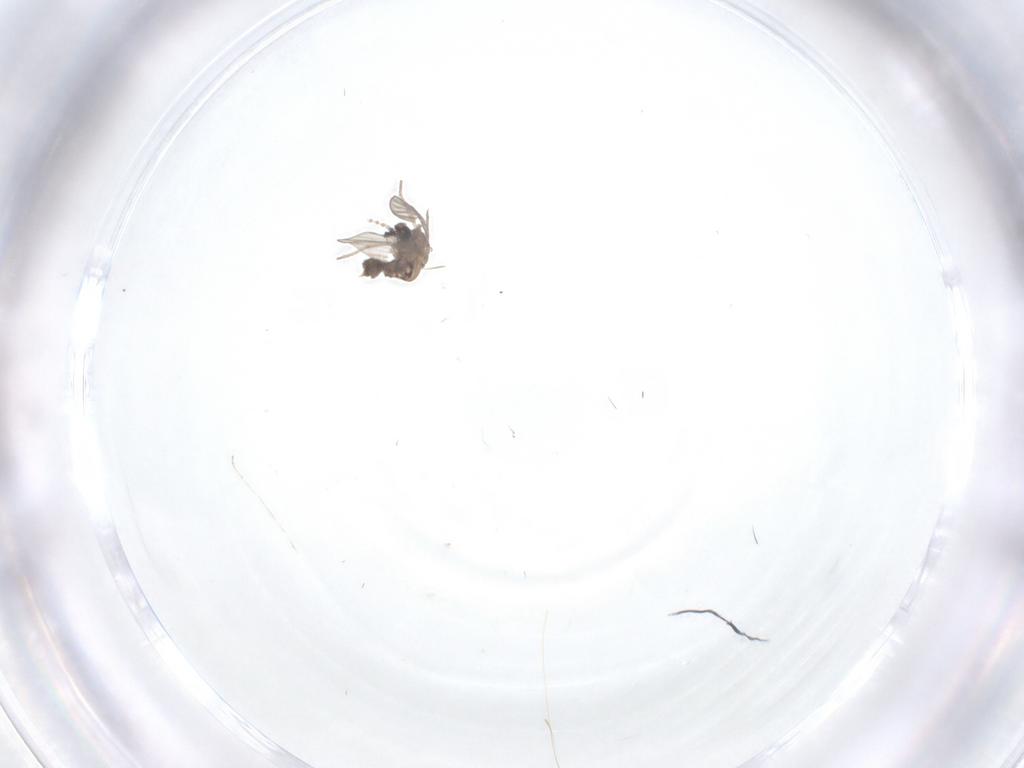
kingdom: Animalia
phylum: Arthropoda
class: Insecta
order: Diptera
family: Psychodidae
